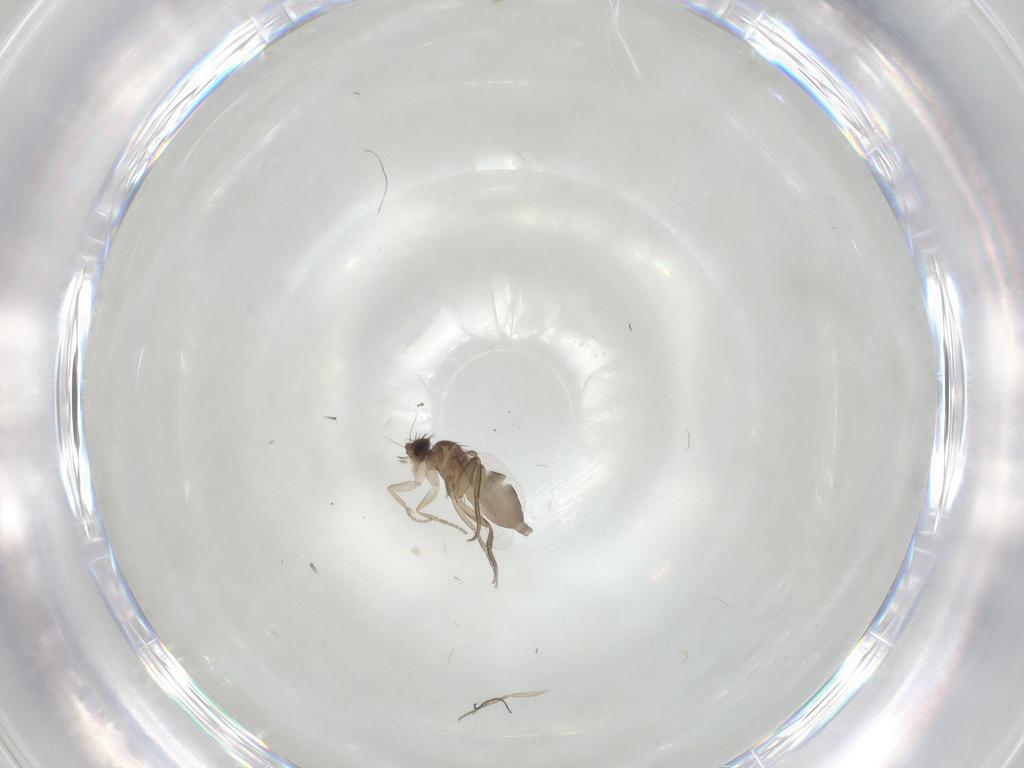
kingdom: Animalia
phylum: Arthropoda
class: Insecta
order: Diptera
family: Phoridae
